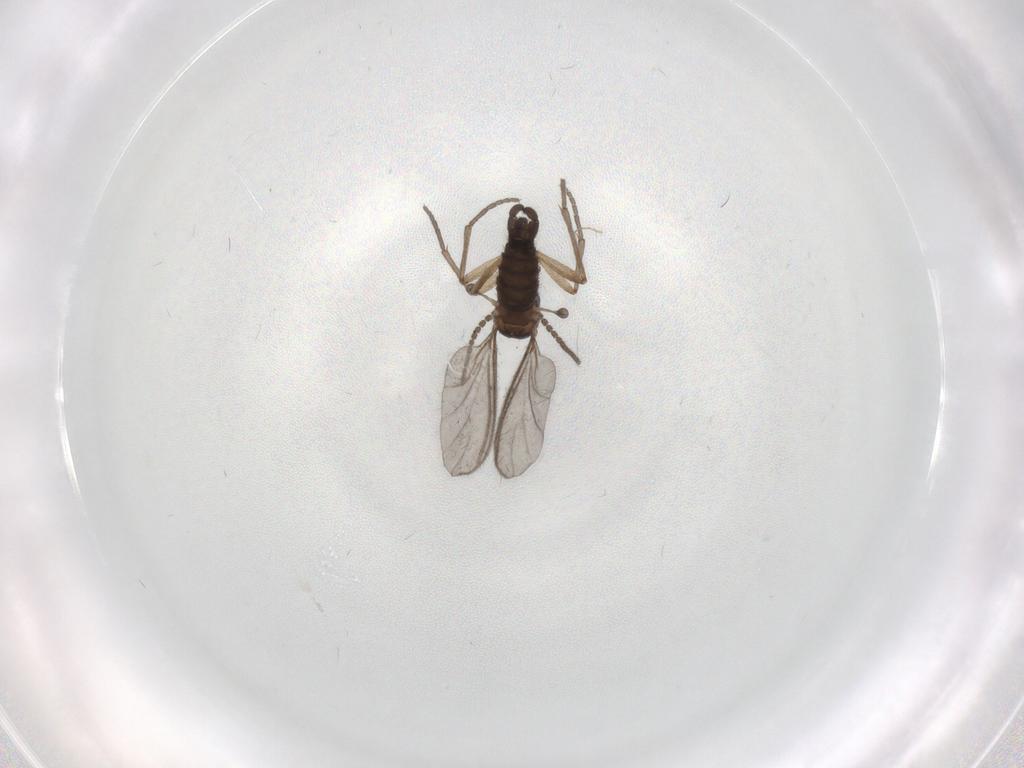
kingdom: Animalia
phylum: Arthropoda
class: Insecta
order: Diptera
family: Sciaridae
